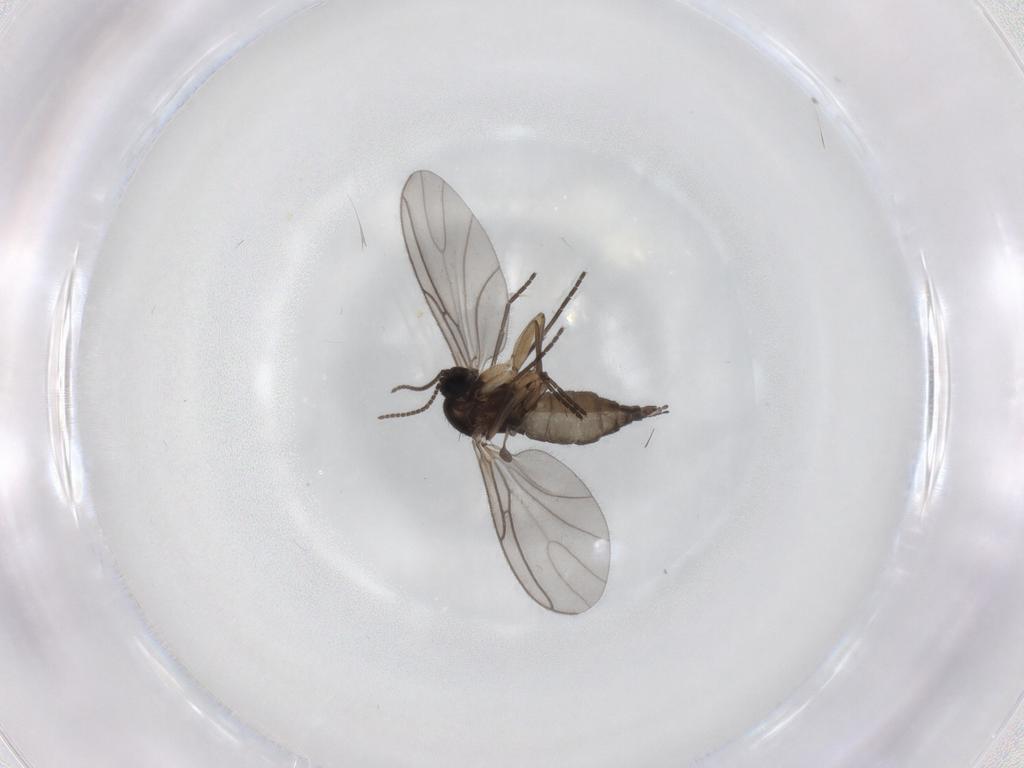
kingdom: Animalia
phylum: Arthropoda
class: Insecta
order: Diptera
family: Sciaridae
